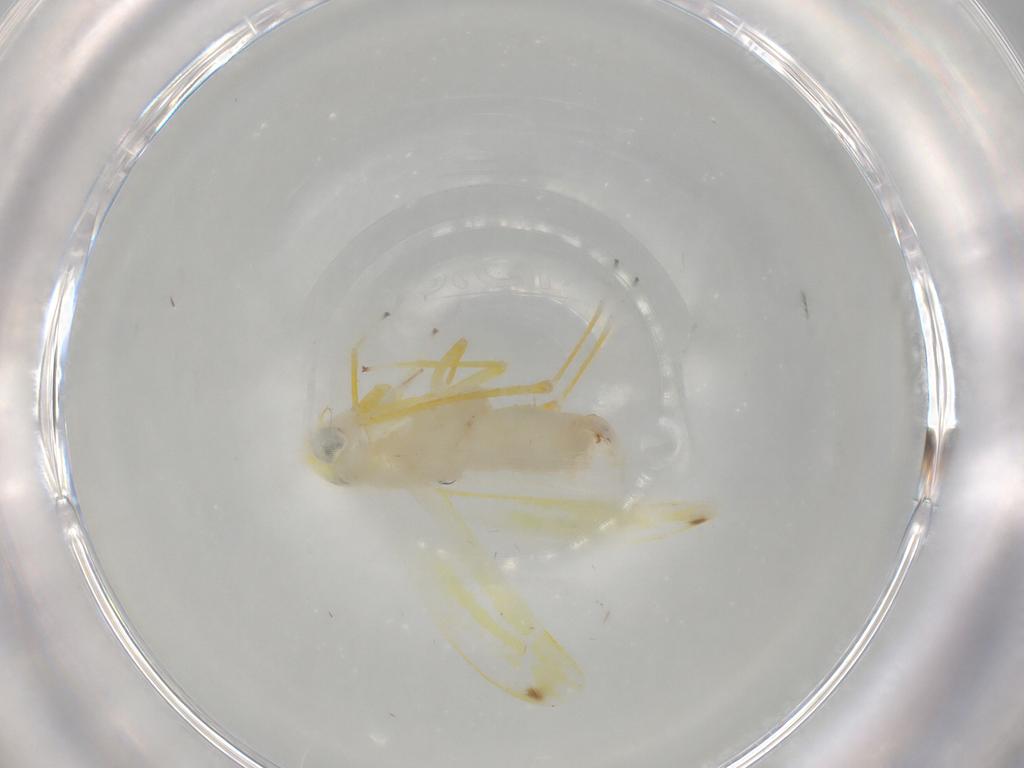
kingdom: Animalia
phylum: Arthropoda
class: Insecta
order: Hemiptera
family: Cicadellidae
